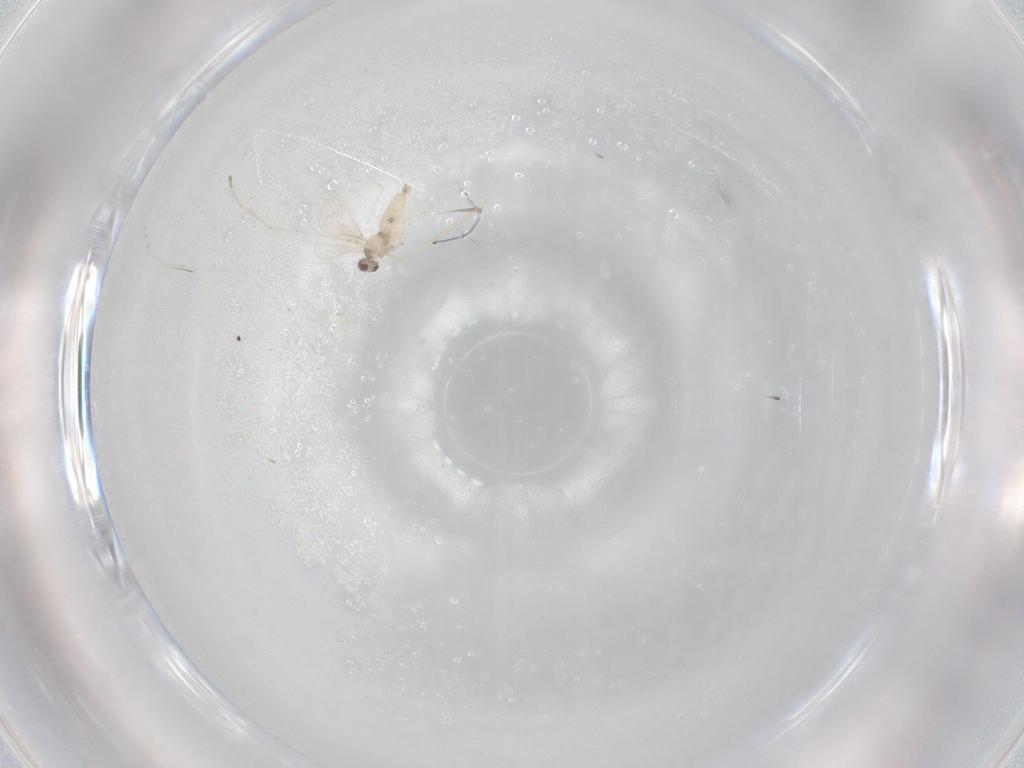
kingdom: Animalia
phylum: Arthropoda
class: Insecta
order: Diptera
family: Cecidomyiidae
